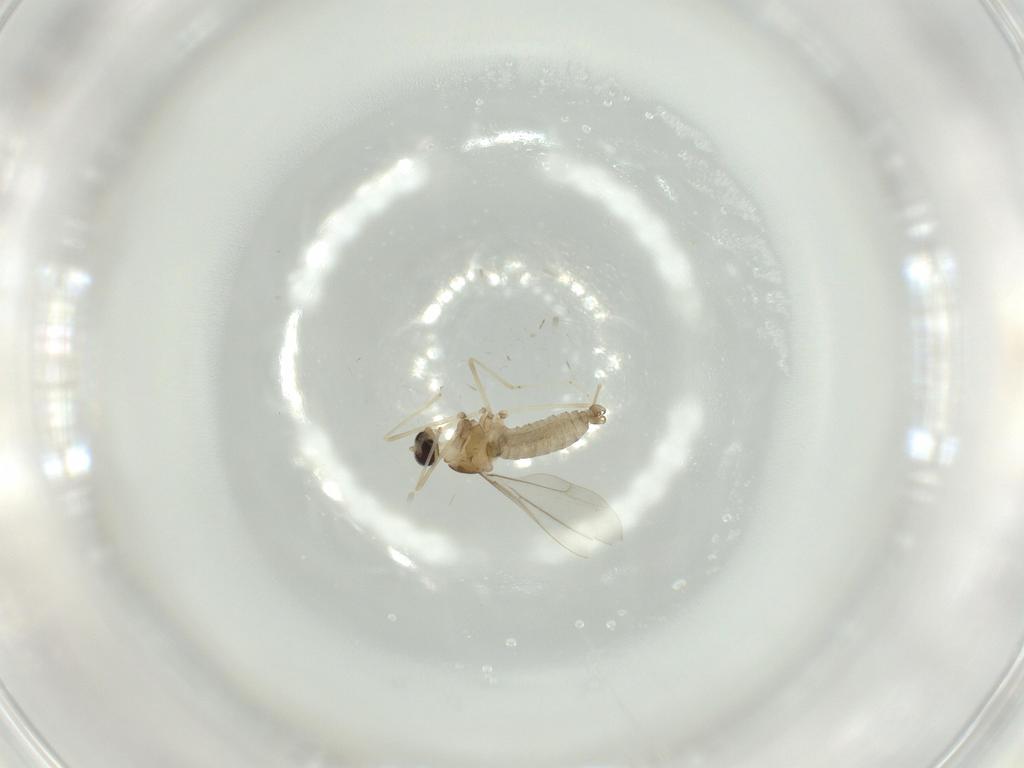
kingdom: Animalia
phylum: Arthropoda
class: Insecta
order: Diptera
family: Cecidomyiidae
